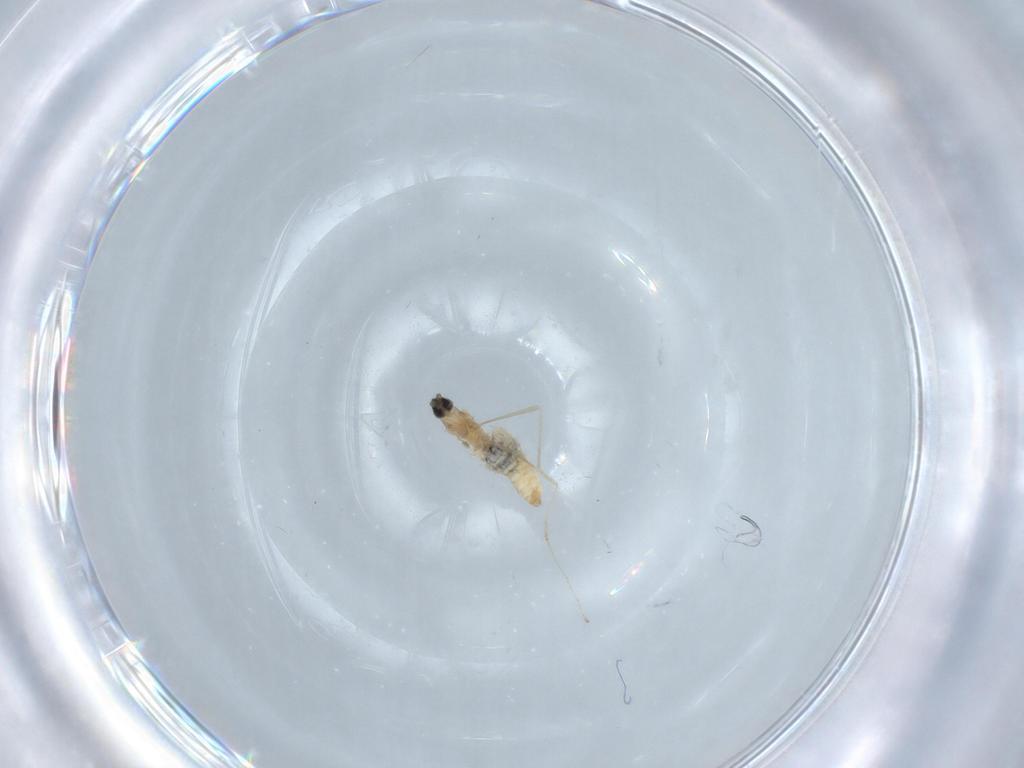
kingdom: Animalia
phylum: Arthropoda
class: Insecta
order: Diptera
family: Cecidomyiidae
